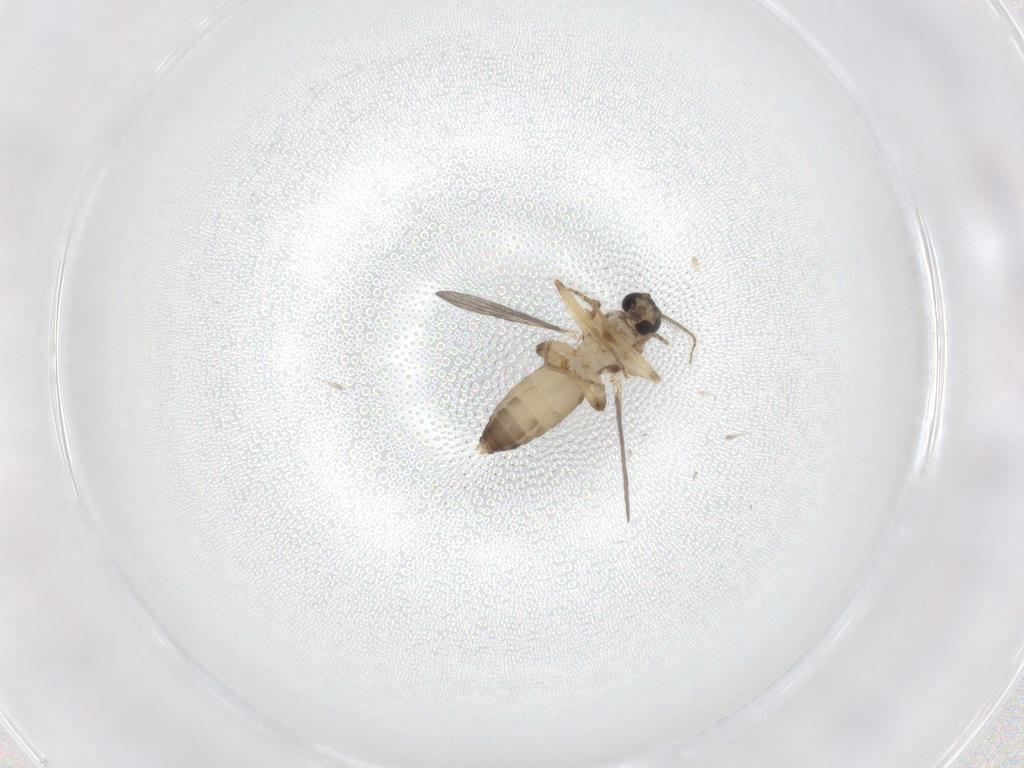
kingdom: Animalia
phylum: Arthropoda
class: Insecta
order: Diptera
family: Ceratopogonidae
